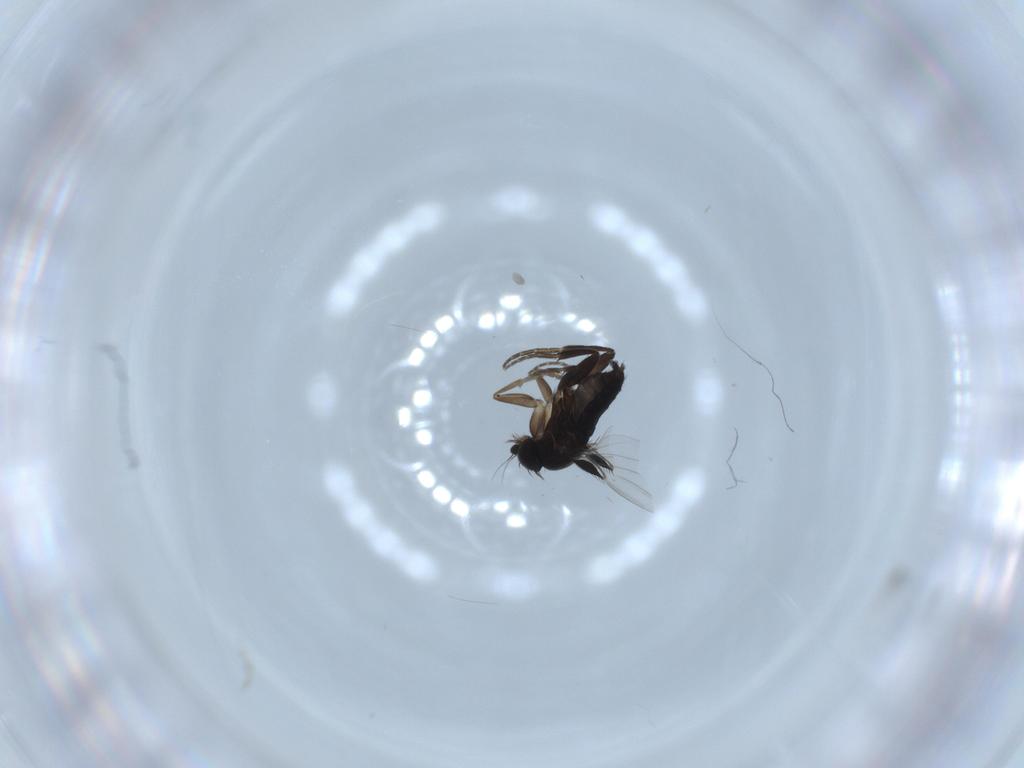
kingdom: Animalia
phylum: Arthropoda
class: Insecta
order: Diptera
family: Phoridae
